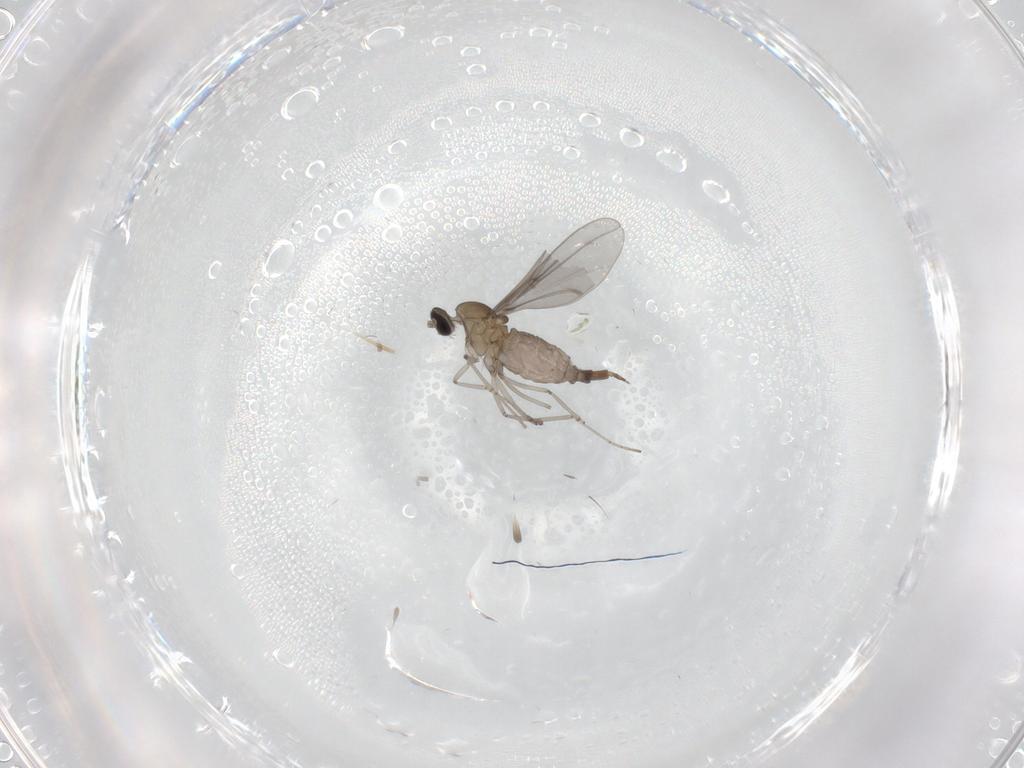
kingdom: Animalia
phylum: Arthropoda
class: Insecta
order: Diptera
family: Cecidomyiidae
